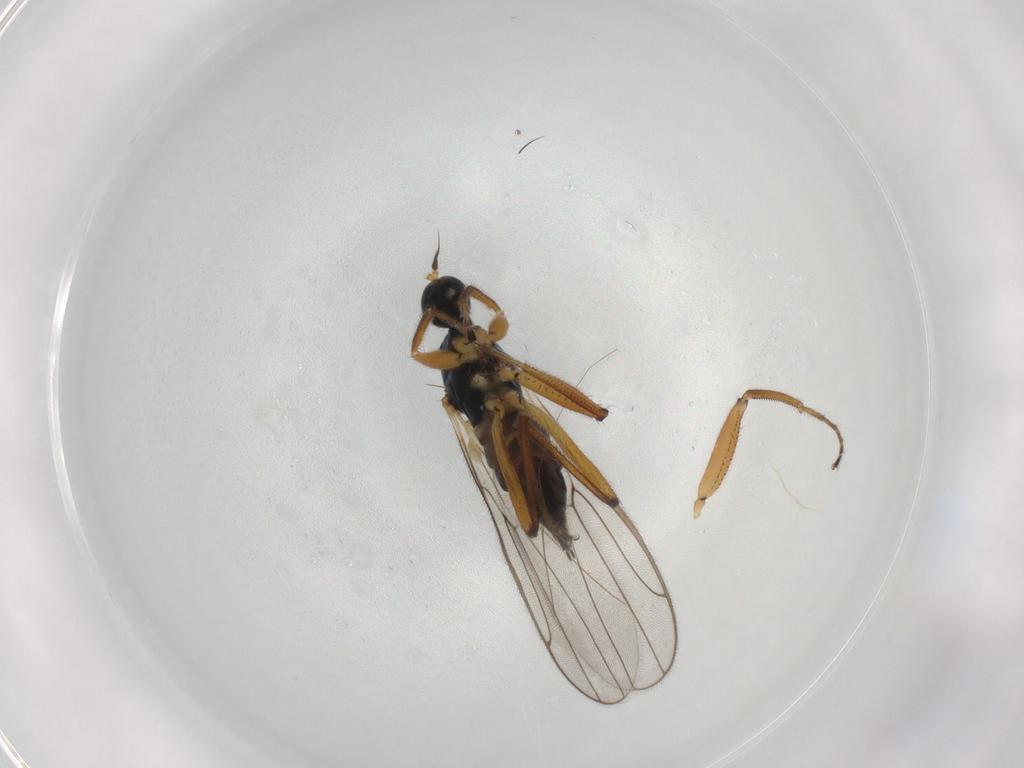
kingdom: Animalia
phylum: Arthropoda
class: Insecta
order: Diptera
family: Hybotidae
